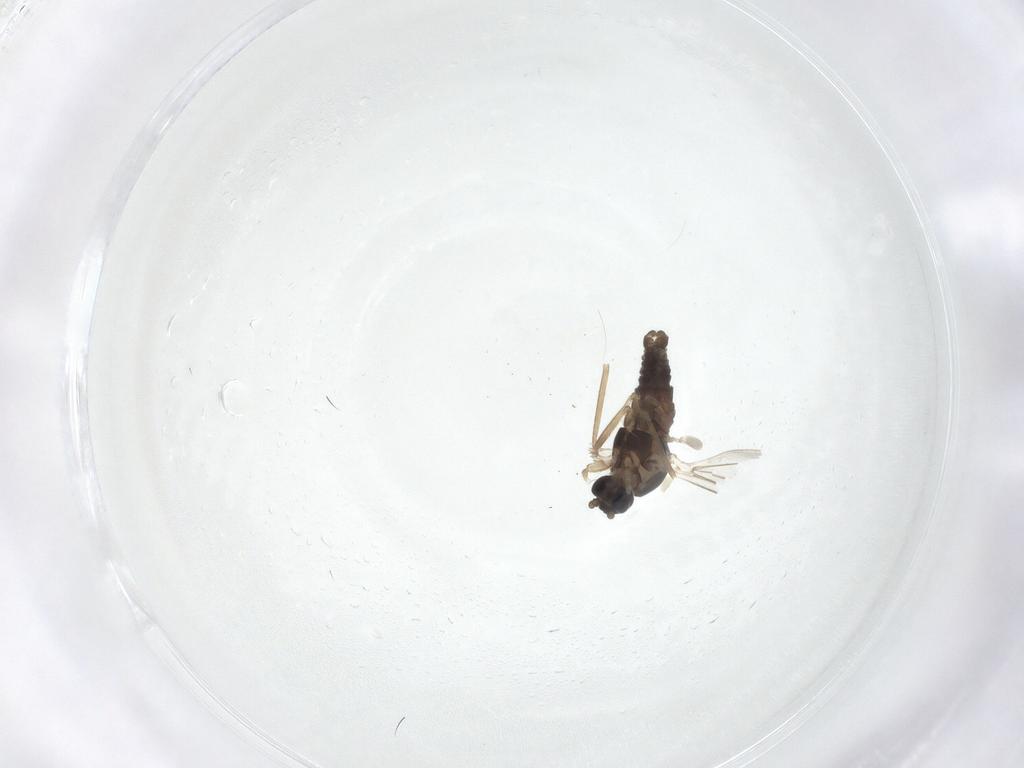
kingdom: Animalia
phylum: Arthropoda
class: Insecta
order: Diptera
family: Cecidomyiidae
